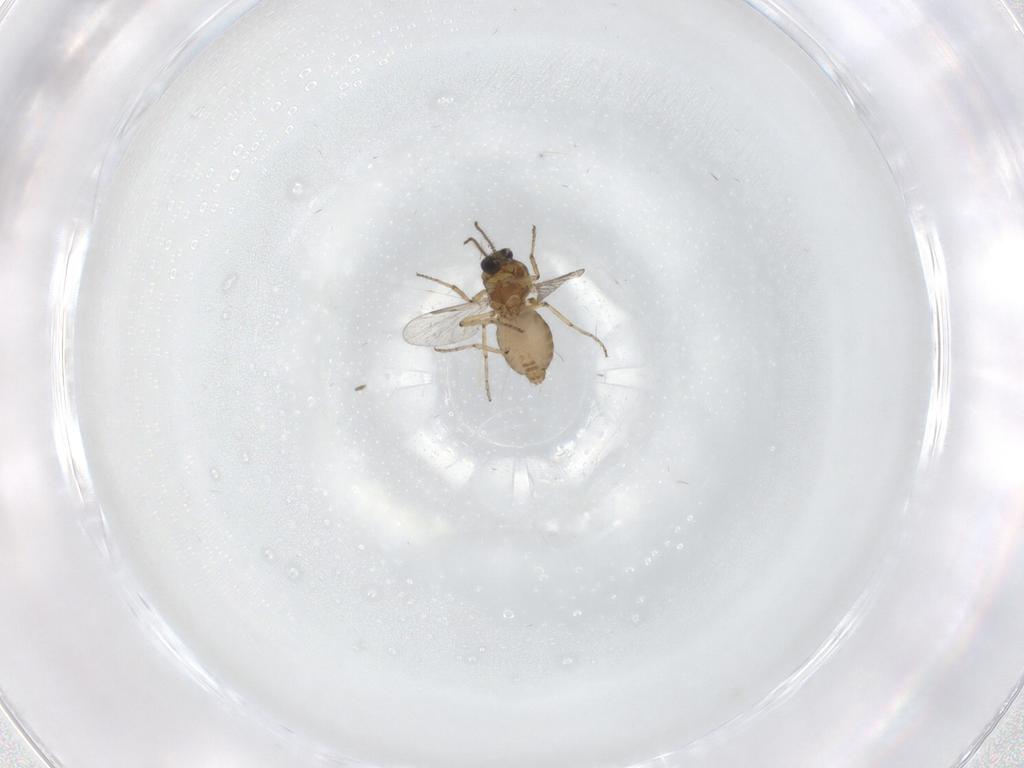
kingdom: Animalia
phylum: Arthropoda
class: Insecta
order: Diptera
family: Ceratopogonidae
